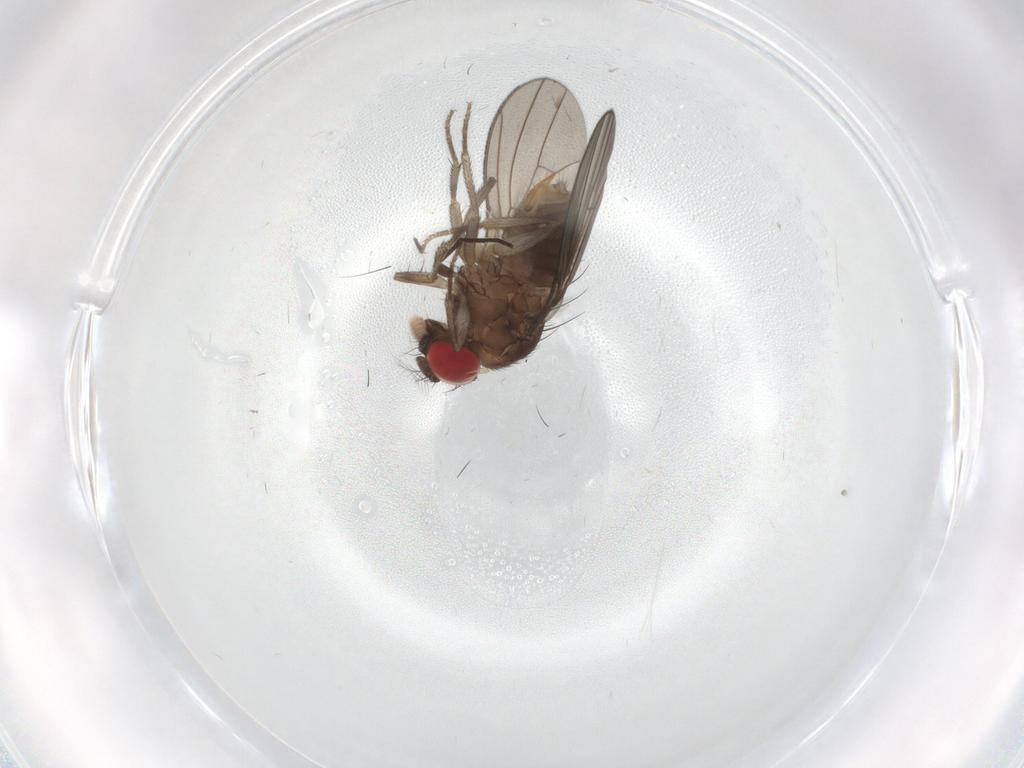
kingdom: Animalia
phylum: Arthropoda
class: Insecta
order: Diptera
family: Drosophilidae
